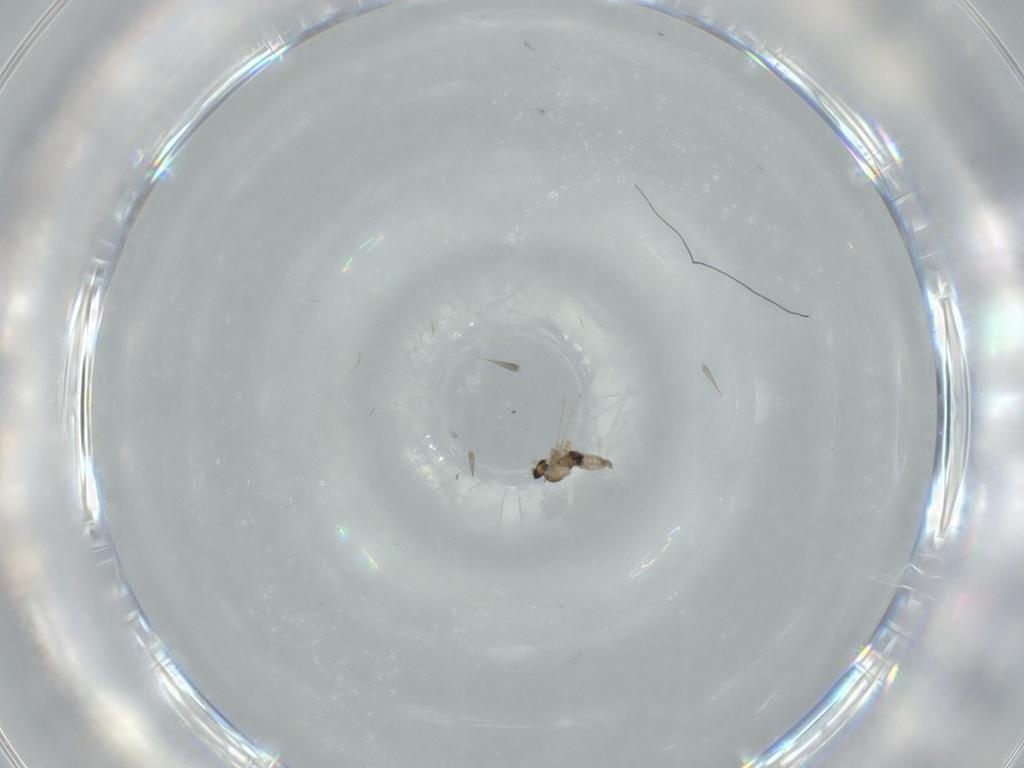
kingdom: Animalia
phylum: Arthropoda
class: Insecta
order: Diptera
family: Cecidomyiidae
